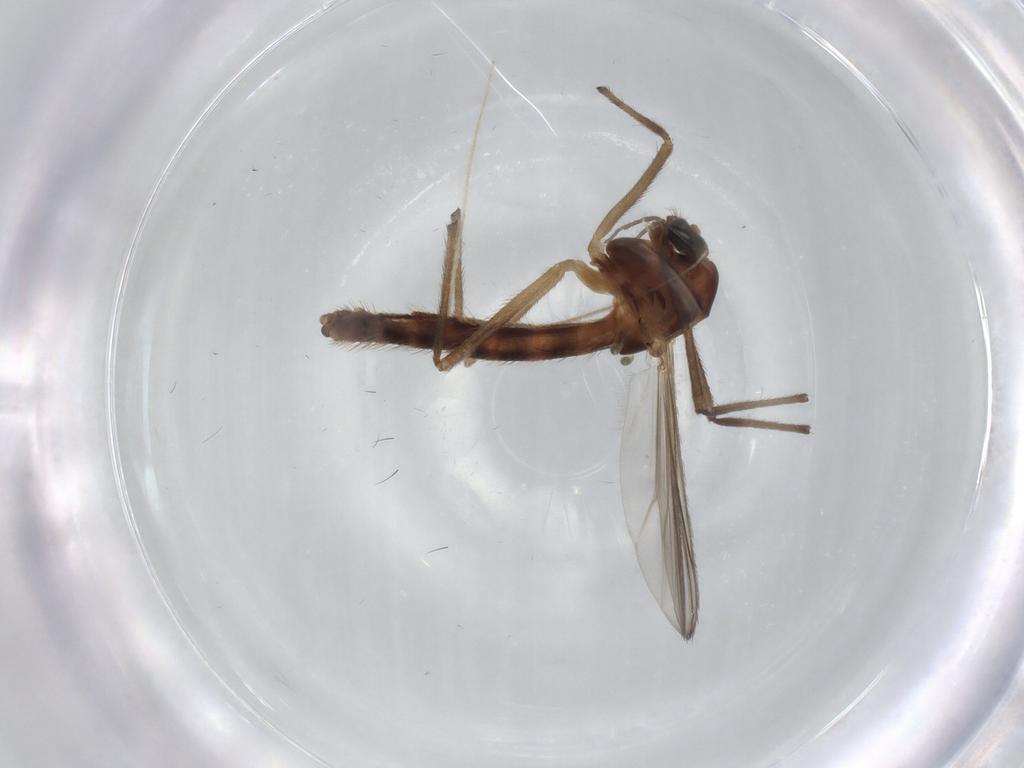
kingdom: Animalia
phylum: Arthropoda
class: Insecta
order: Diptera
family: Chironomidae
